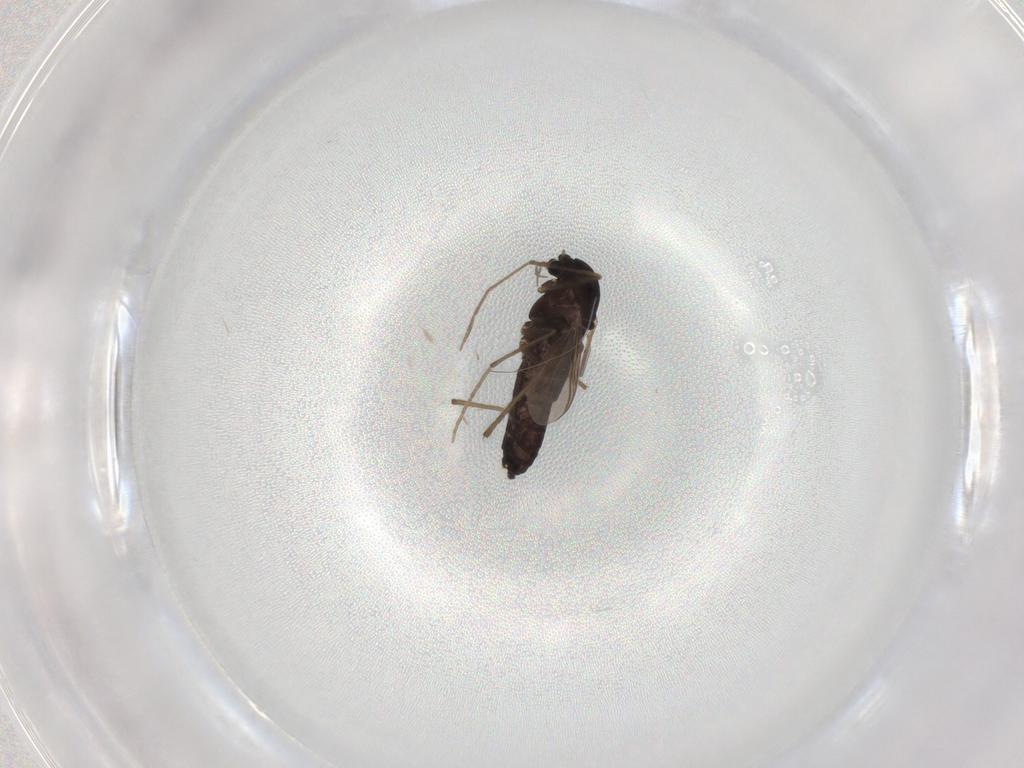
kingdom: Animalia
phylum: Arthropoda
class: Insecta
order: Diptera
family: Chironomidae
